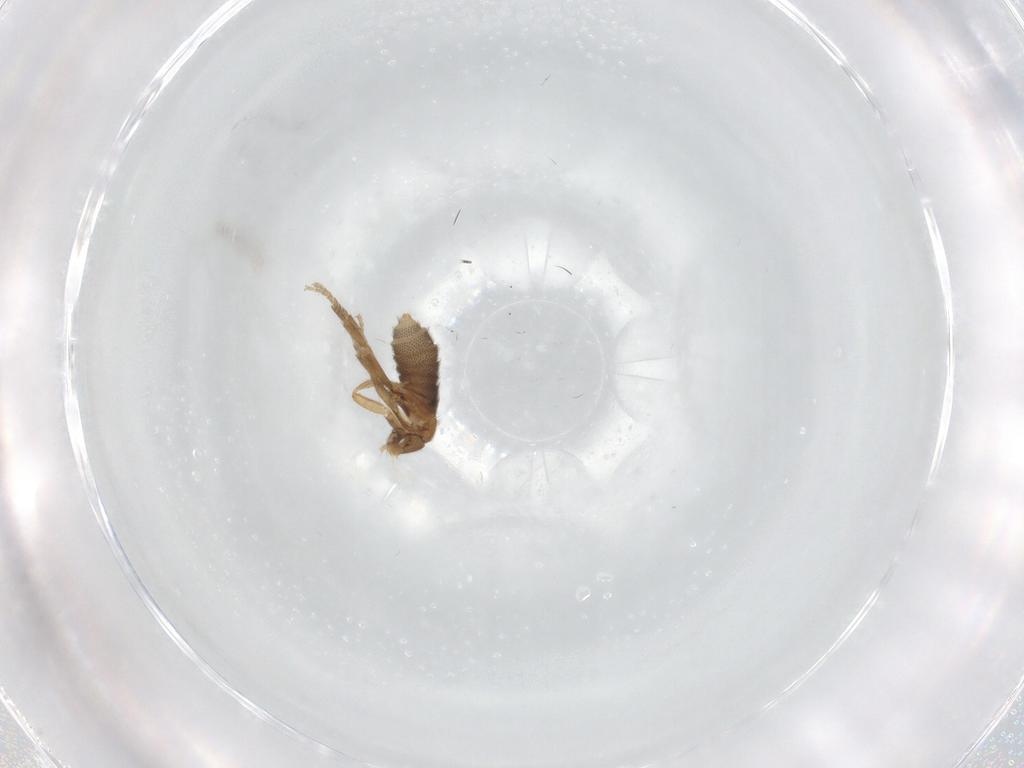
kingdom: Animalia
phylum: Arthropoda
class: Insecta
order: Diptera
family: Phoridae
